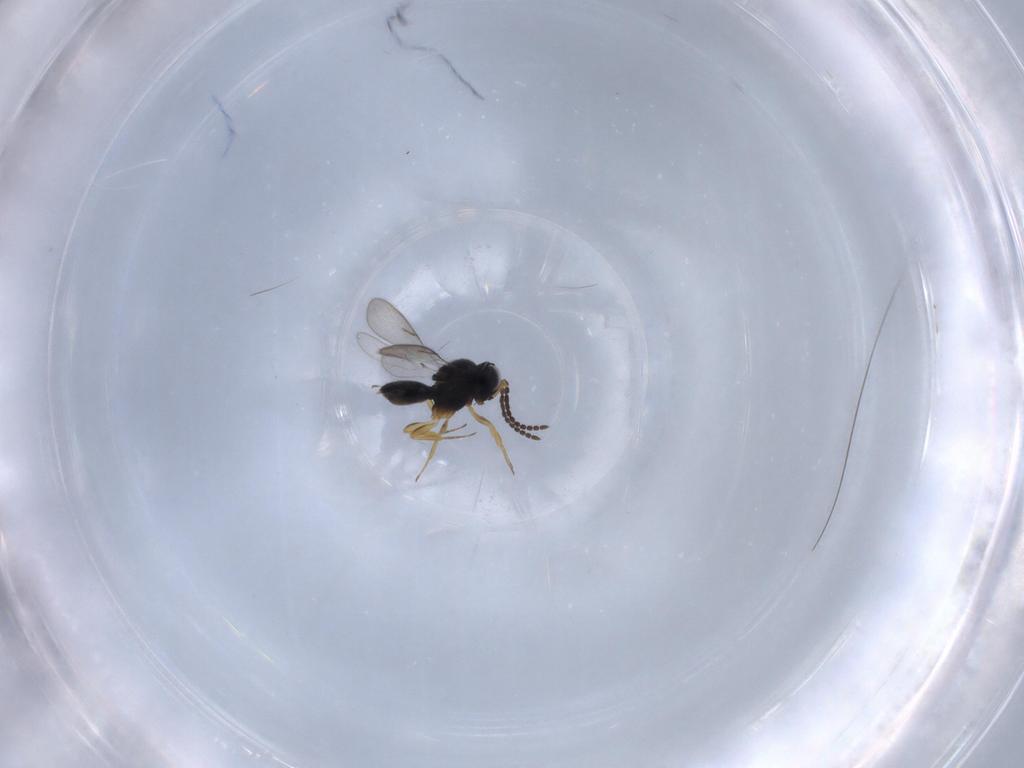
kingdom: Animalia
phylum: Arthropoda
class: Insecta
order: Hymenoptera
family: Scelionidae
